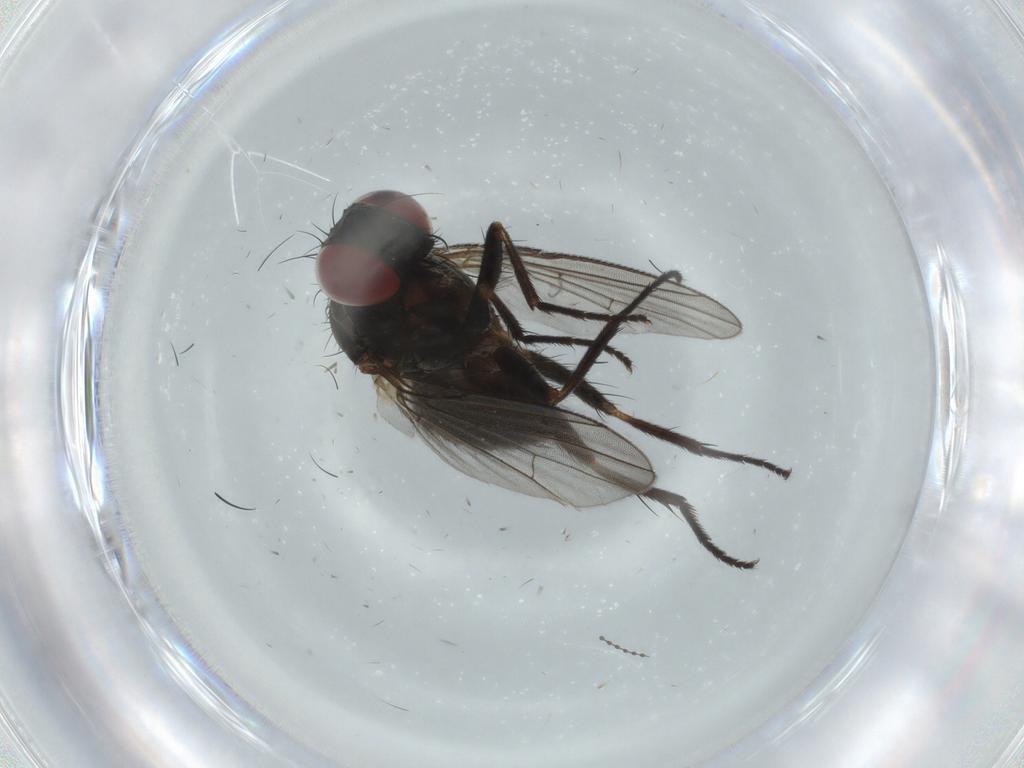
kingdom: Animalia
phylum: Arthropoda
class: Insecta
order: Diptera
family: Muscidae
